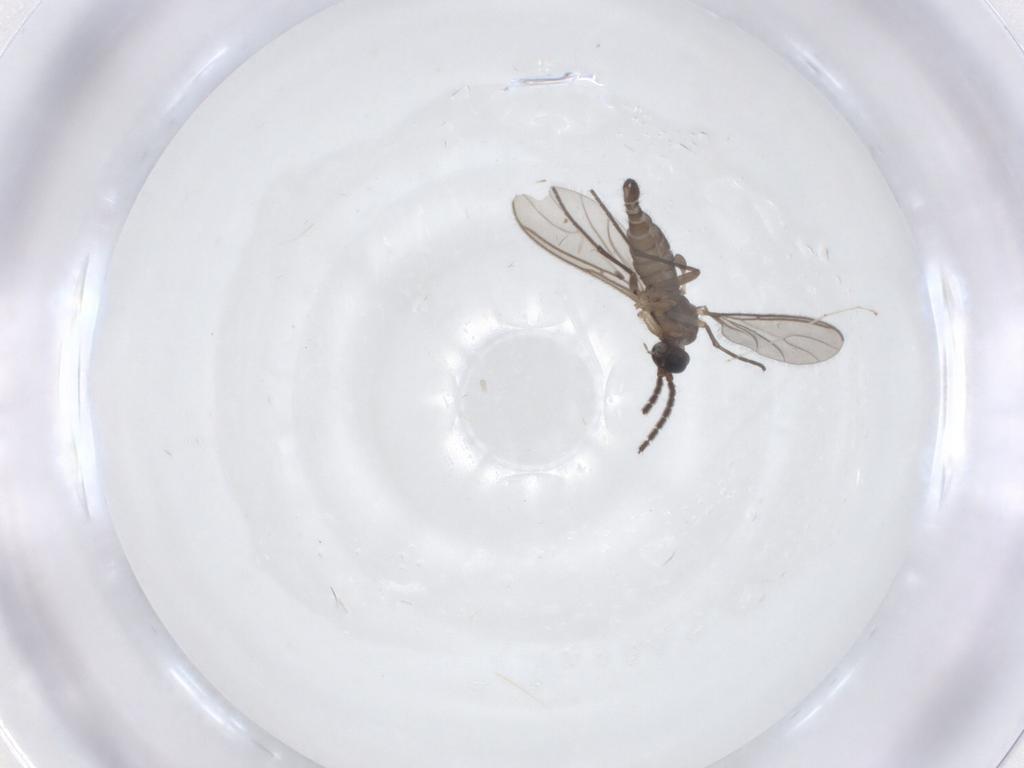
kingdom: Animalia
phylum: Arthropoda
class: Insecta
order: Diptera
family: Sciaridae
